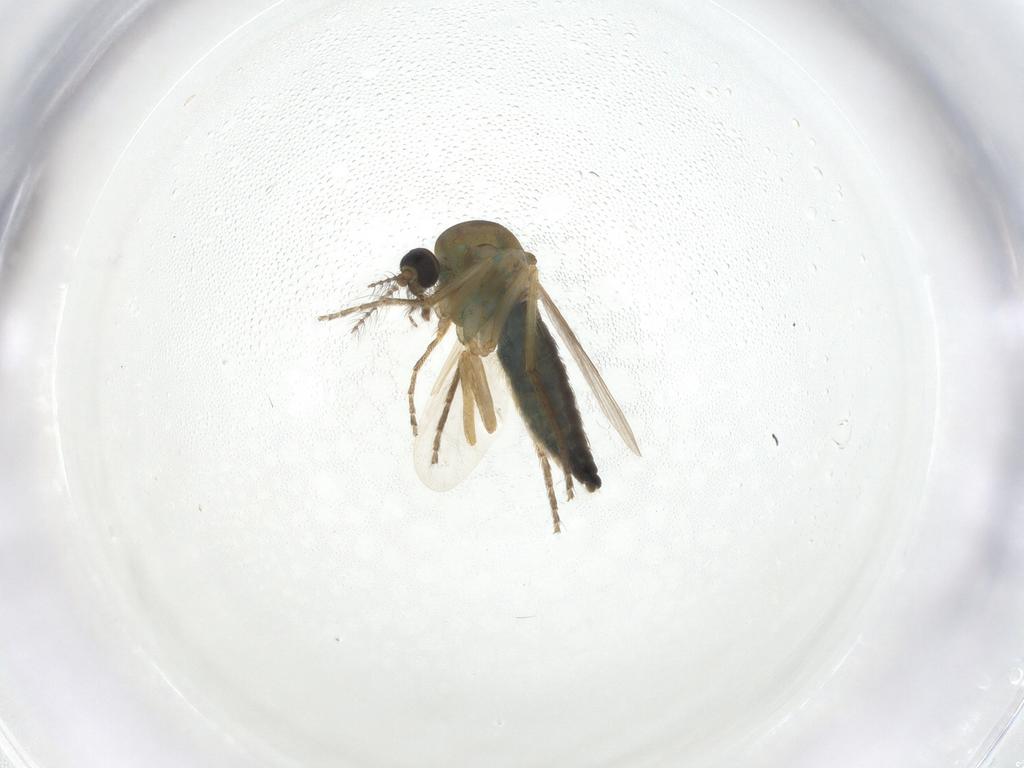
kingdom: Animalia
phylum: Arthropoda
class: Insecta
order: Diptera
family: Ceratopogonidae
